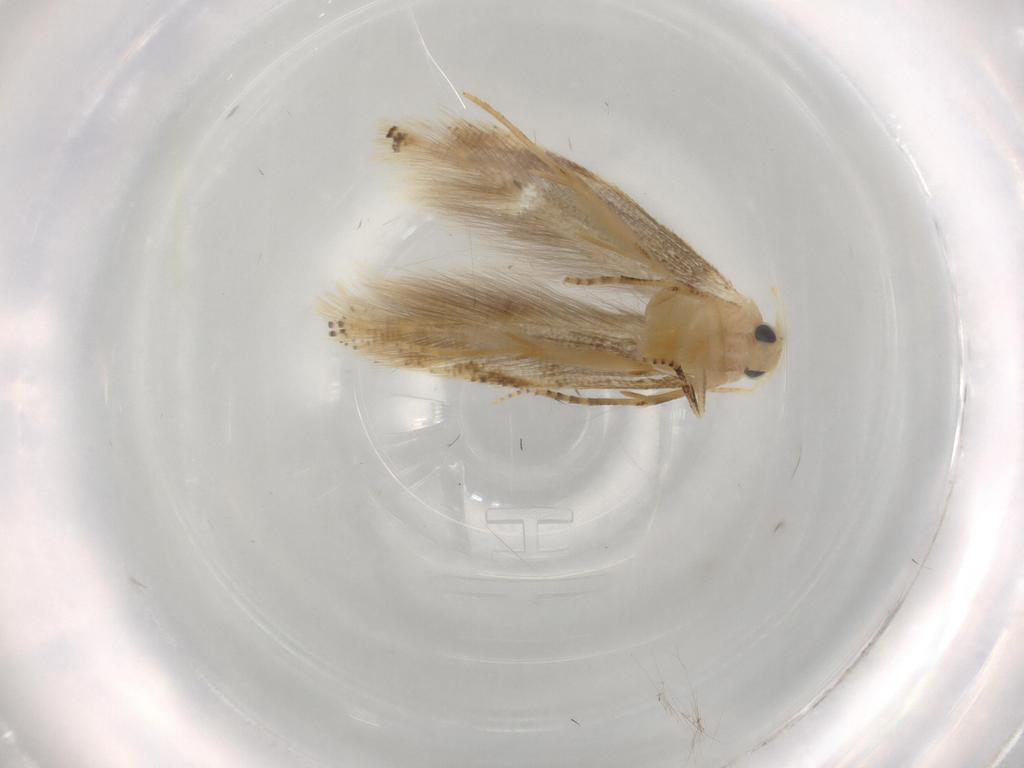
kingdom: Animalia
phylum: Arthropoda
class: Insecta
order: Lepidoptera
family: Bucculatricidae
